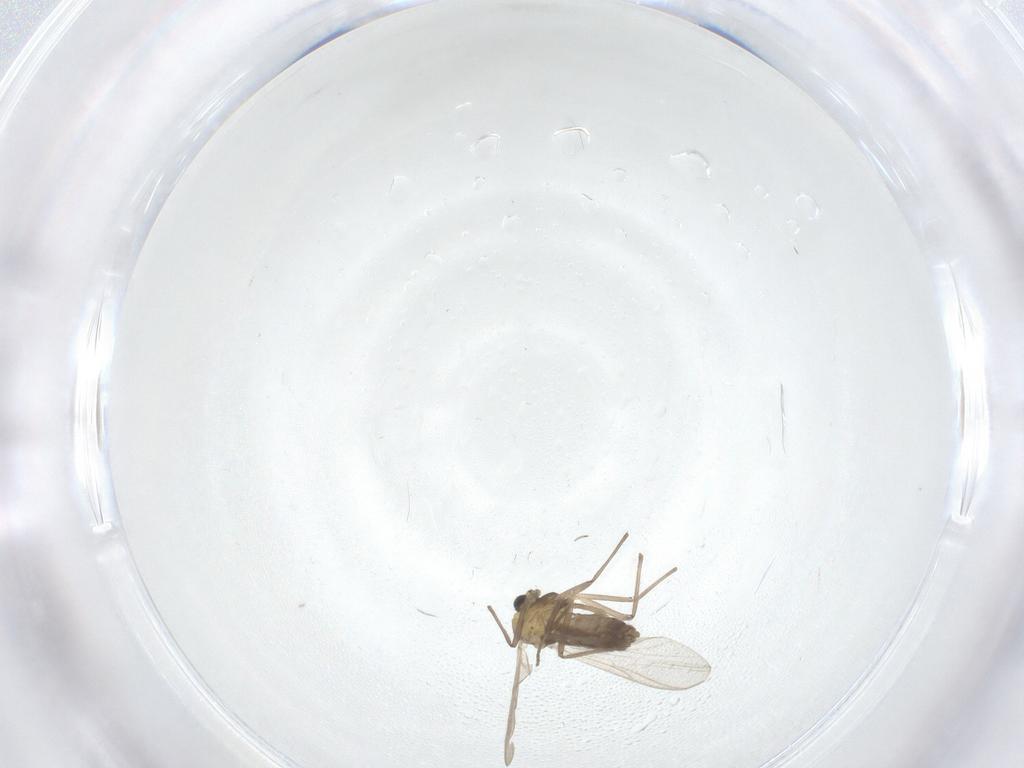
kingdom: Animalia
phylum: Arthropoda
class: Insecta
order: Diptera
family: Chironomidae
